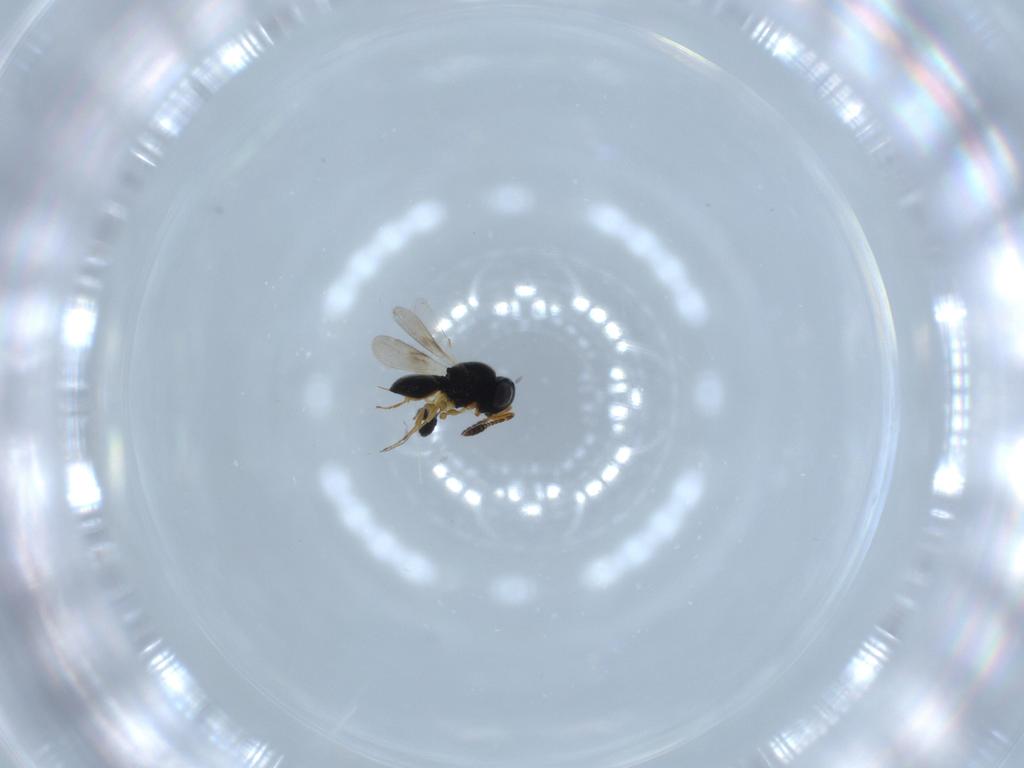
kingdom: Animalia
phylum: Arthropoda
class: Insecta
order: Hymenoptera
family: Scelionidae
